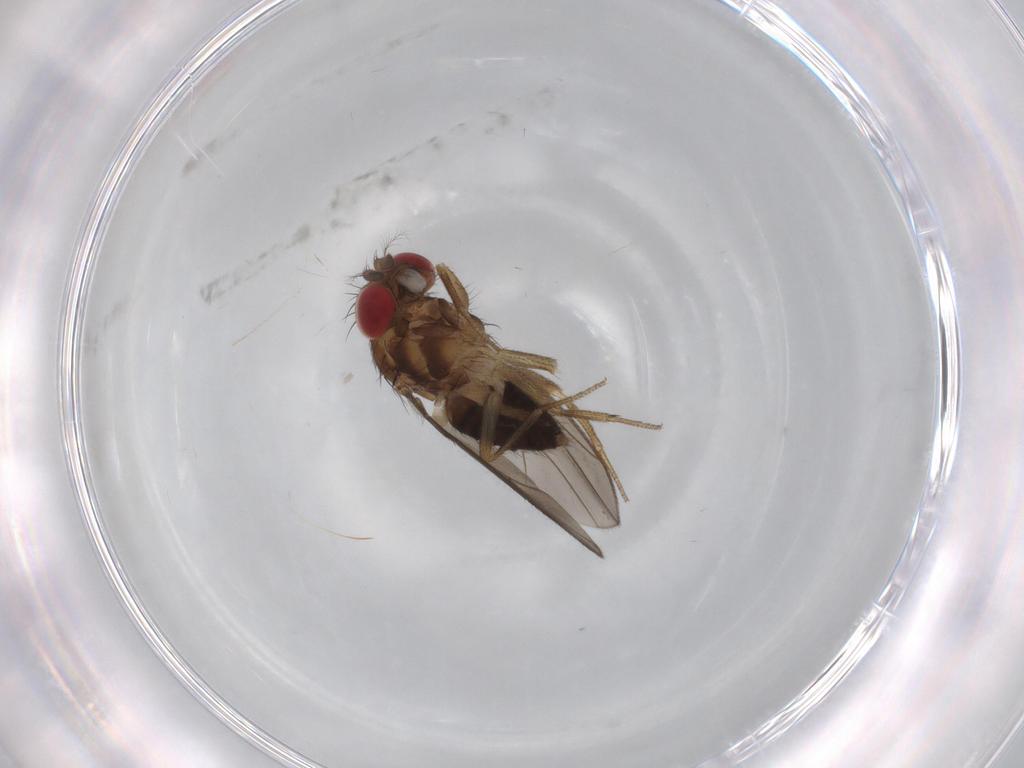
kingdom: Animalia
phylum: Arthropoda
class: Insecta
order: Diptera
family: Drosophilidae
